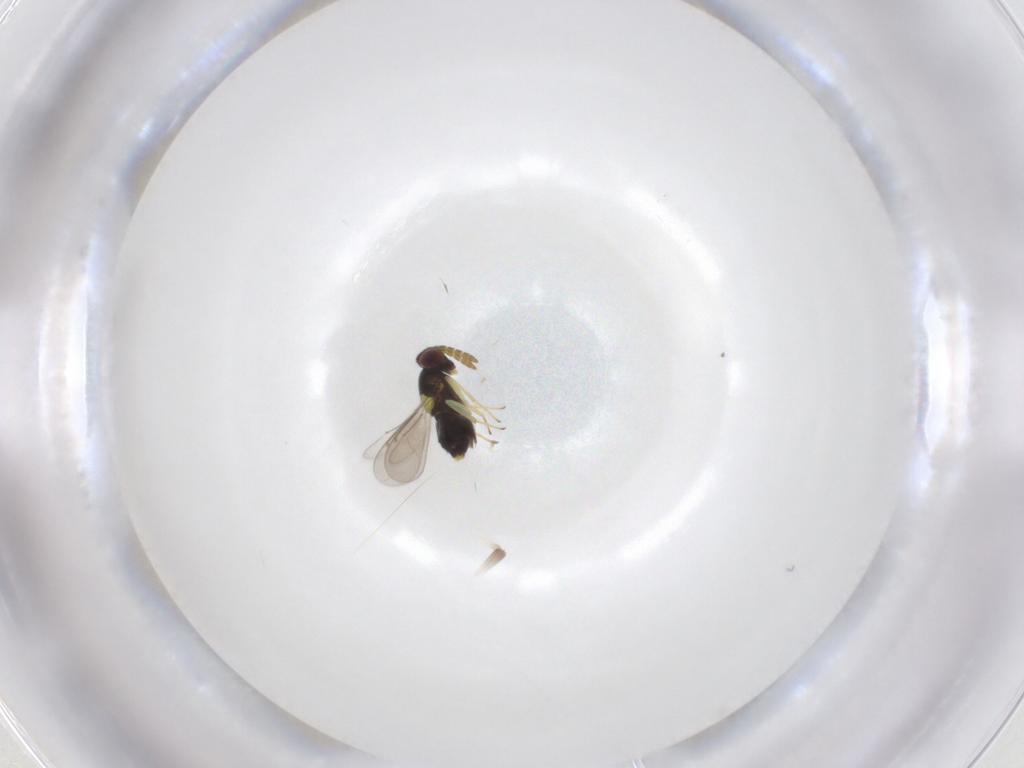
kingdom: Animalia
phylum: Arthropoda
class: Insecta
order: Hymenoptera
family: Aphelinidae
